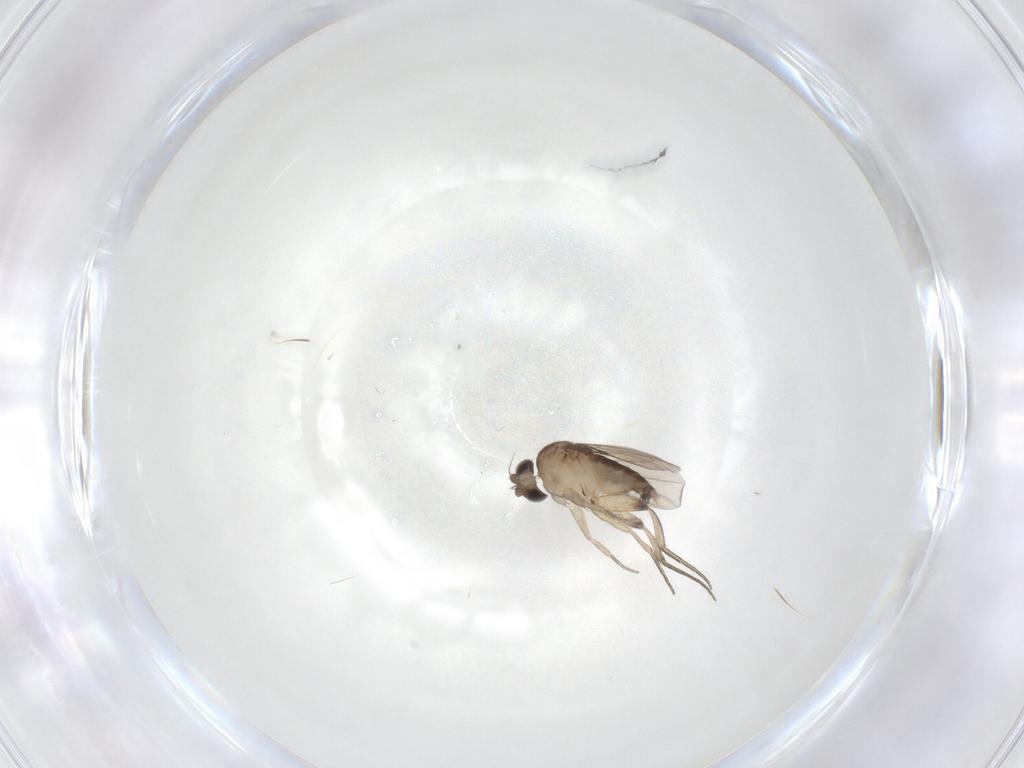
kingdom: Animalia
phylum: Arthropoda
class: Insecta
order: Diptera
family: Phoridae
